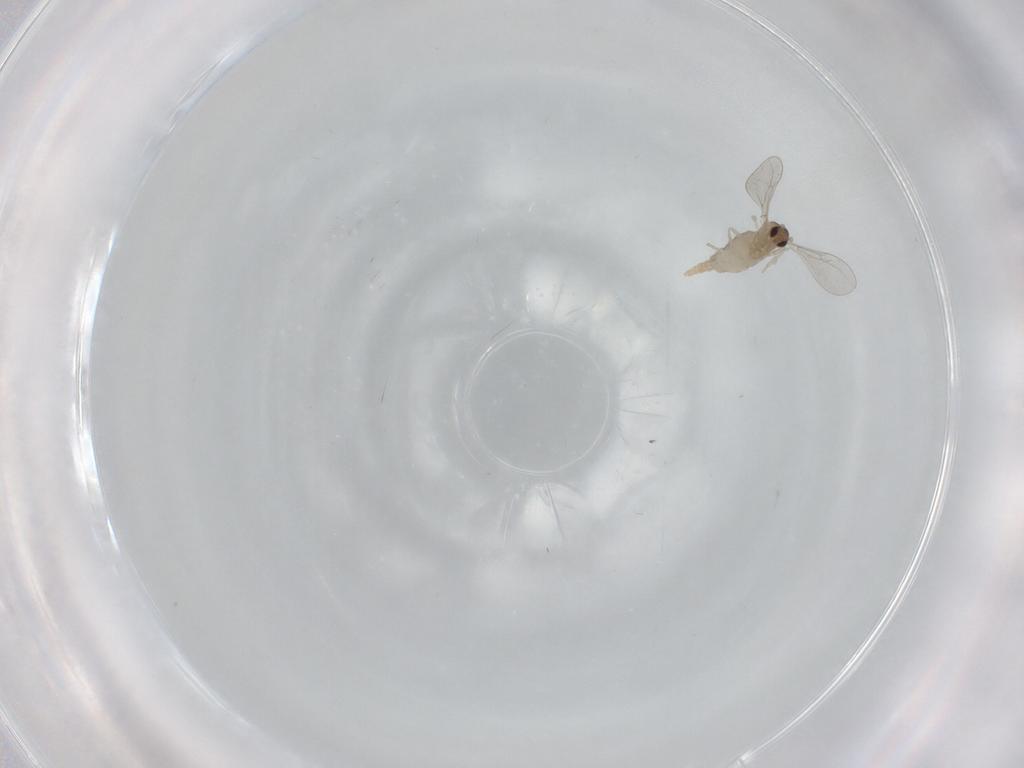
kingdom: Animalia
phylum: Arthropoda
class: Insecta
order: Diptera
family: Cecidomyiidae
